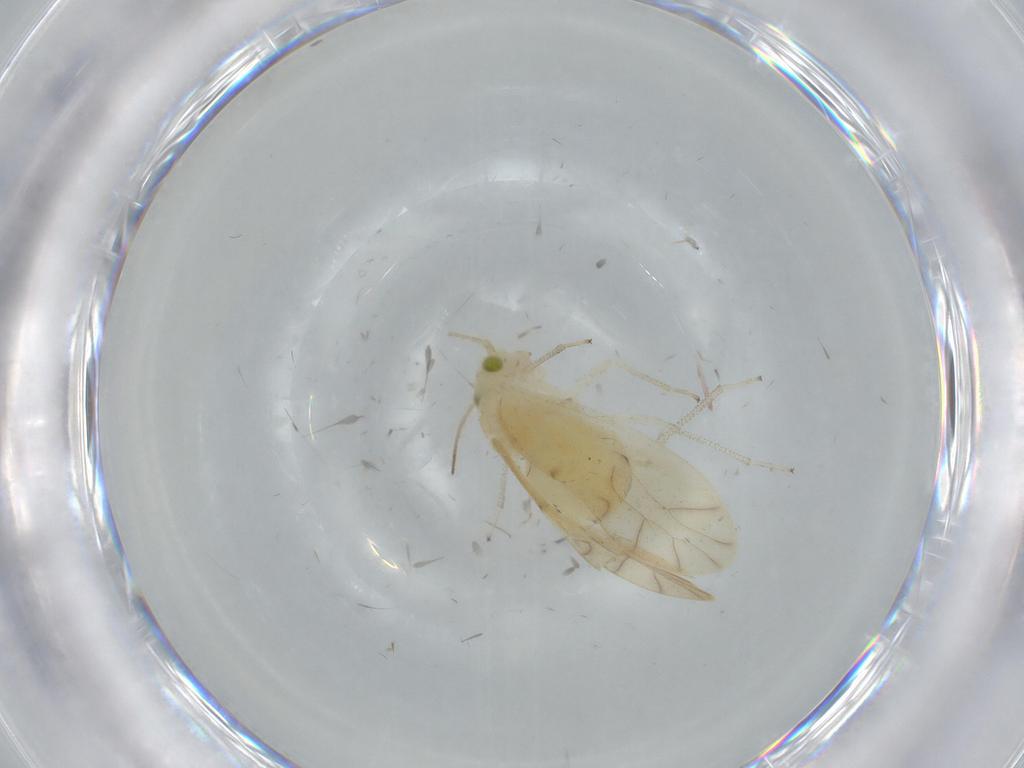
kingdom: Animalia
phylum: Arthropoda
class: Insecta
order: Psocodea
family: Caeciliusidae
